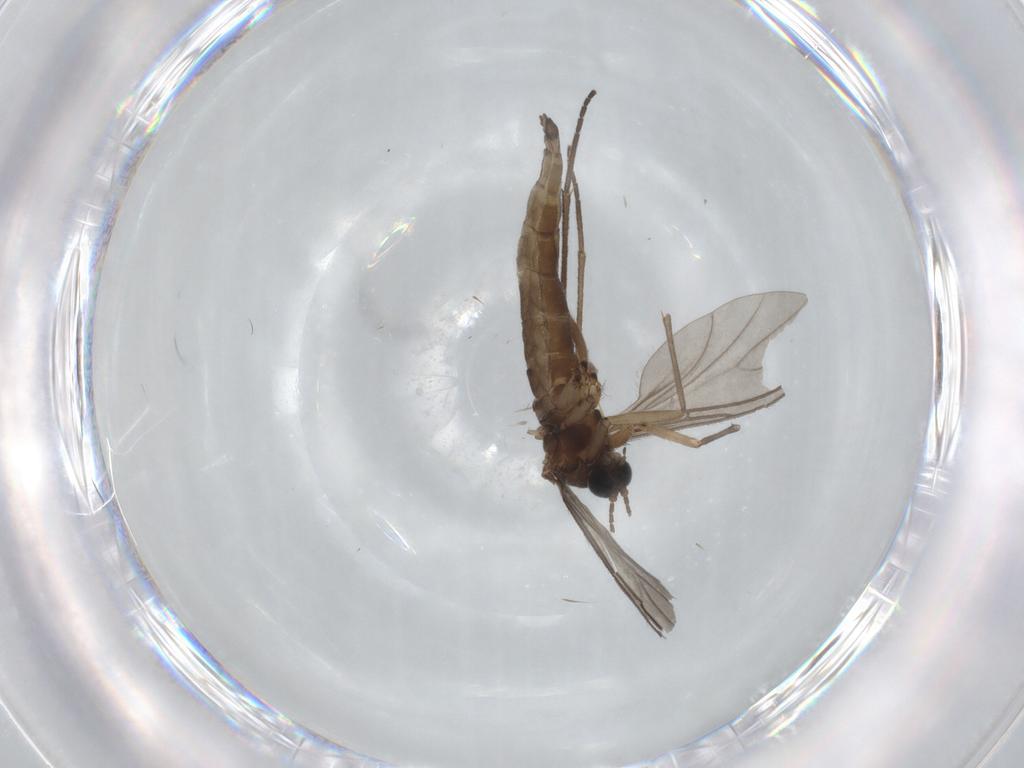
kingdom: Animalia
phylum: Arthropoda
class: Insecta
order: Diptera
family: Sciaridae
